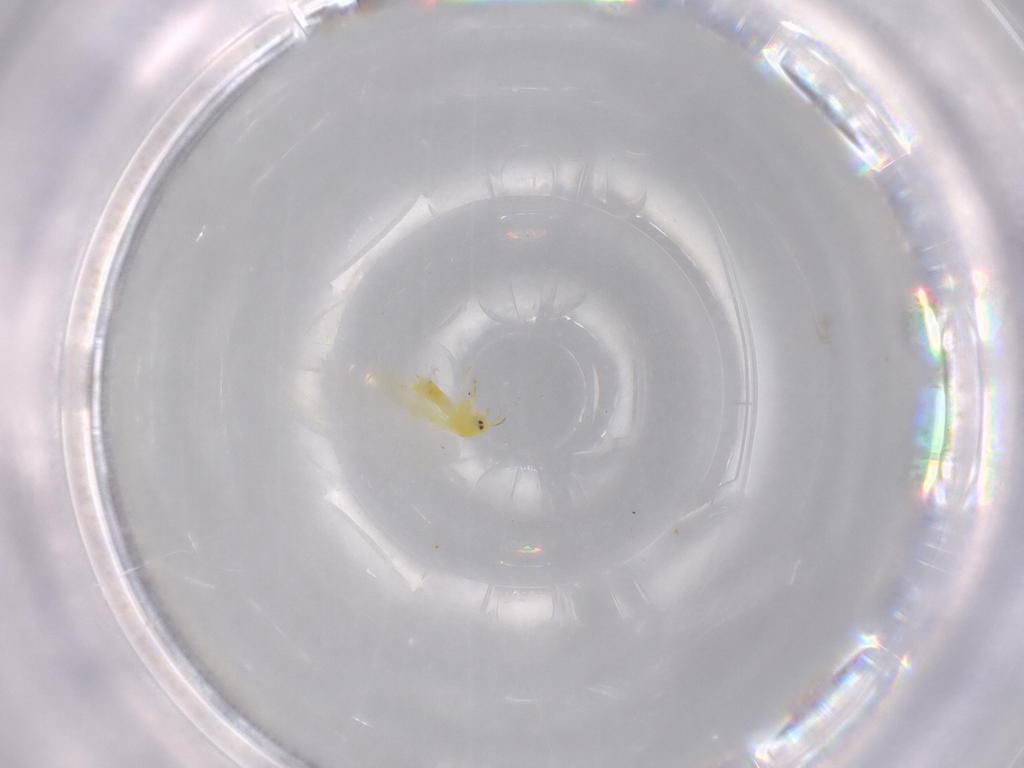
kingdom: Animalia
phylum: Arthropoda
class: Insecta
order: Hemiptera
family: Aleyrodidae
